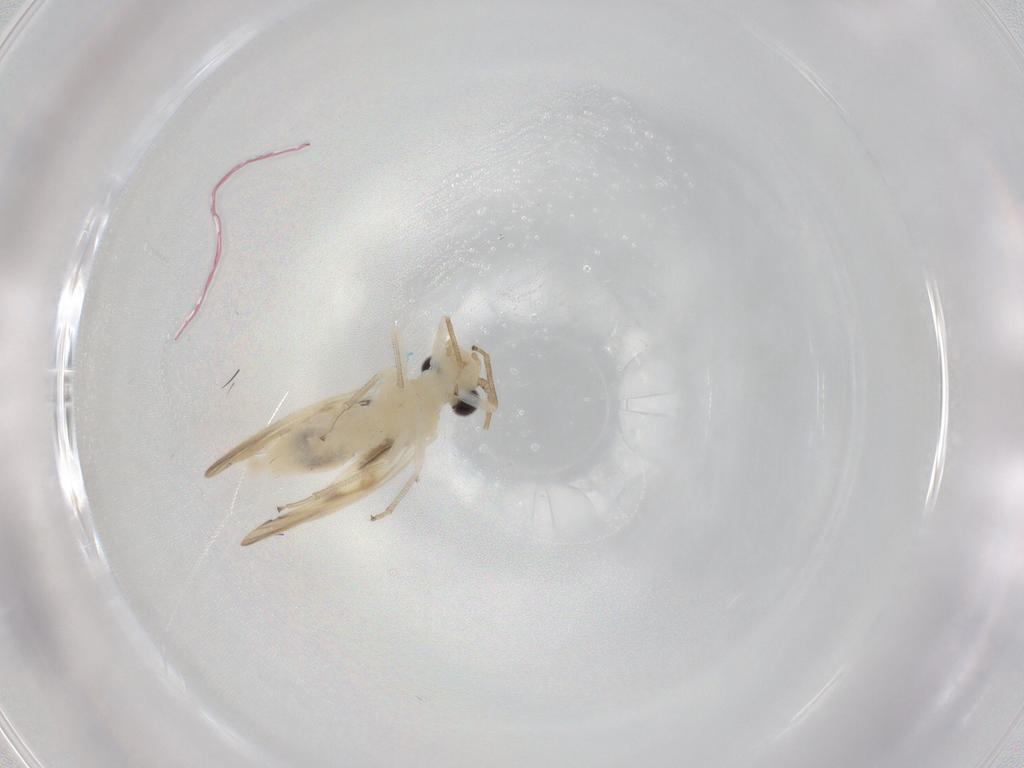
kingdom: Animalia
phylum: Arthropoda
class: Insecta
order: Psocodea
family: Caeciliusidae
